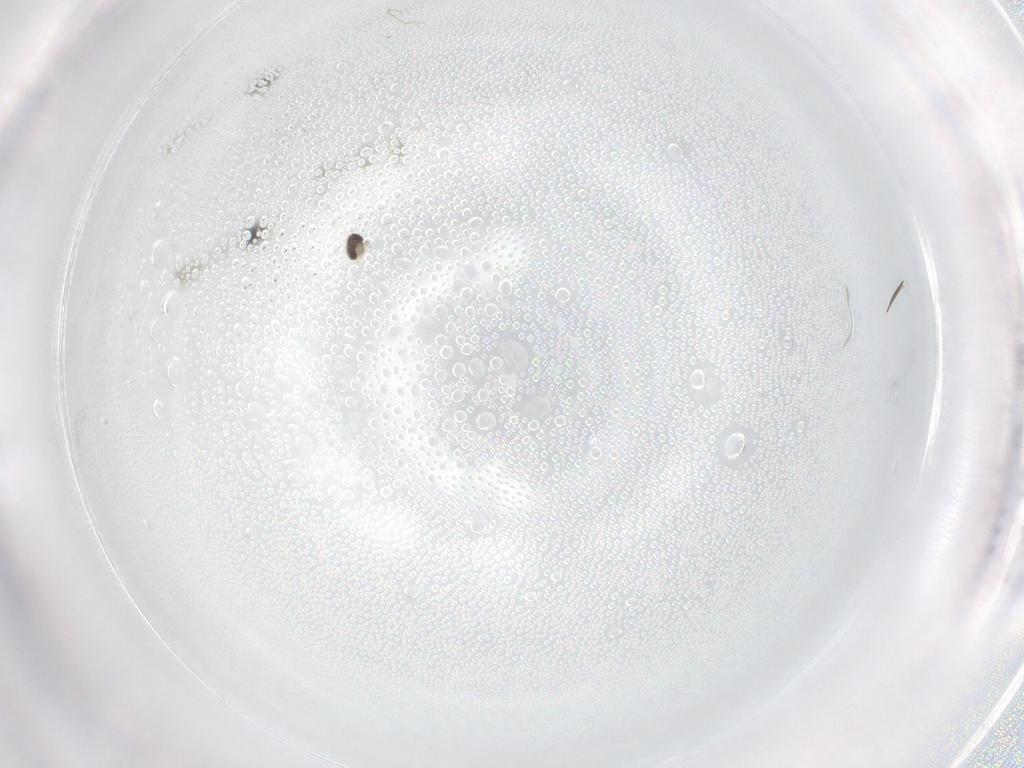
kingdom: Animalia
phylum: Arthropoda
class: Insecta
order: Diptera
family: Cecidomyiidae
